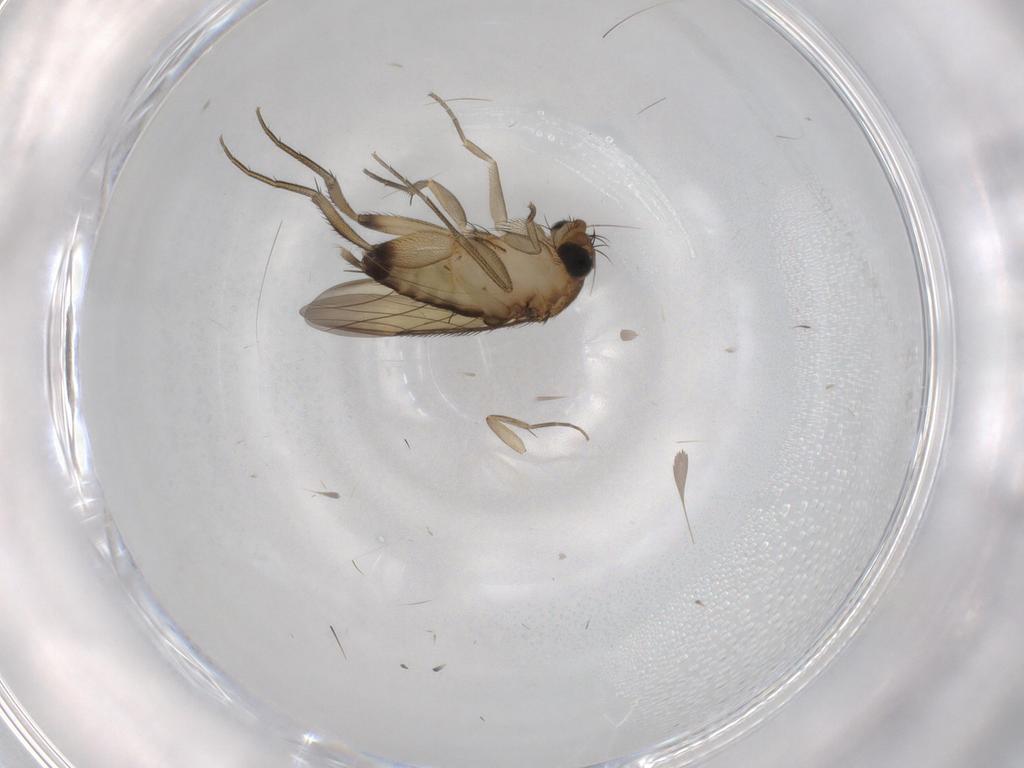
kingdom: Animalia
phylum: Arthropoda
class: Insecta
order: Diptera
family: Phoridae
